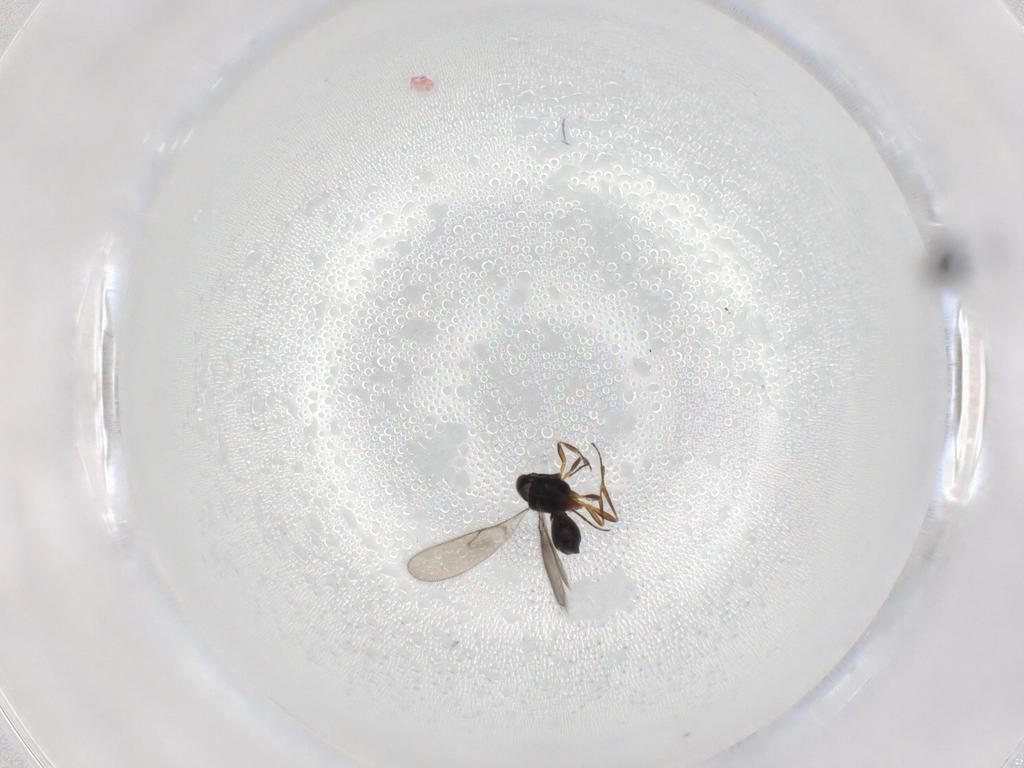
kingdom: Animalia
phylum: Arthropoda
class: Insecta
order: Hymenoptera
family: Scelionidae
